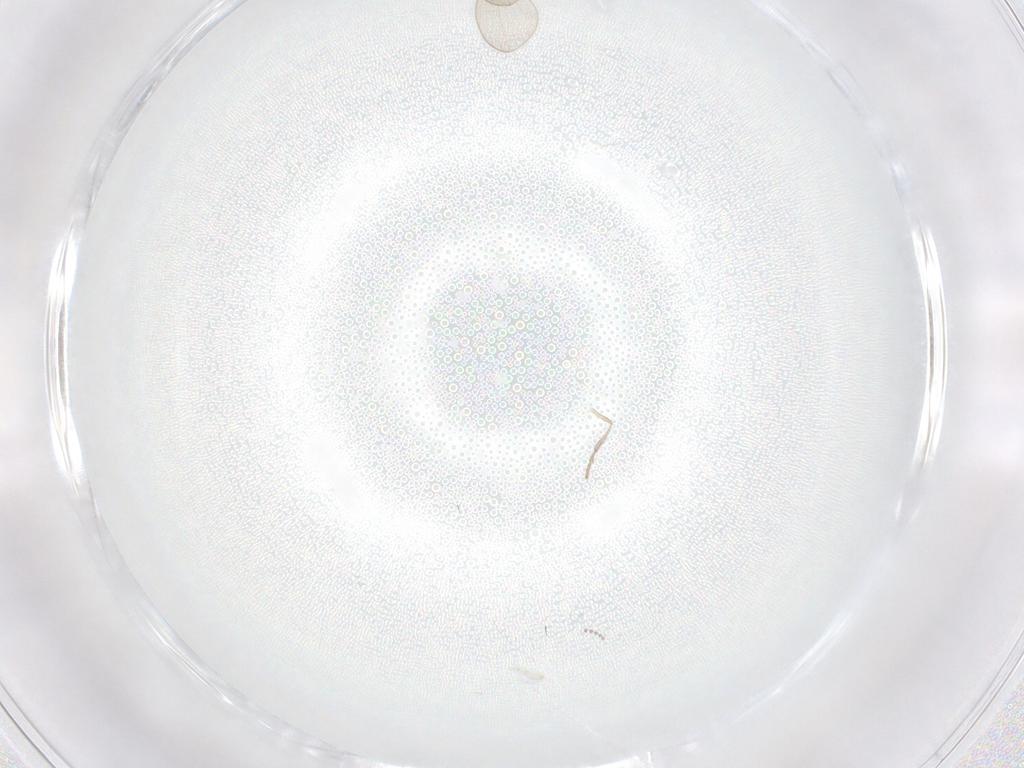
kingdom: Animalia
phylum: Arthropoda
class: Insecta
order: Diptera
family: Psychodidae
